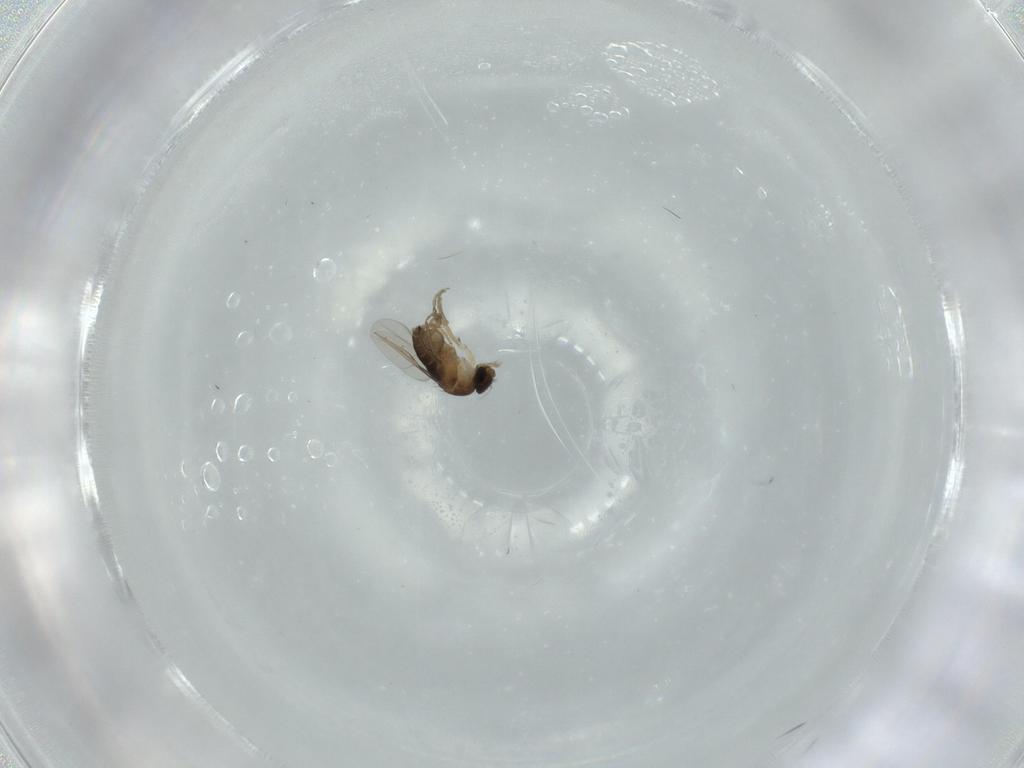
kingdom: Animalia
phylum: Arthropoda
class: Insecta
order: Diptera
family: Phoridae
